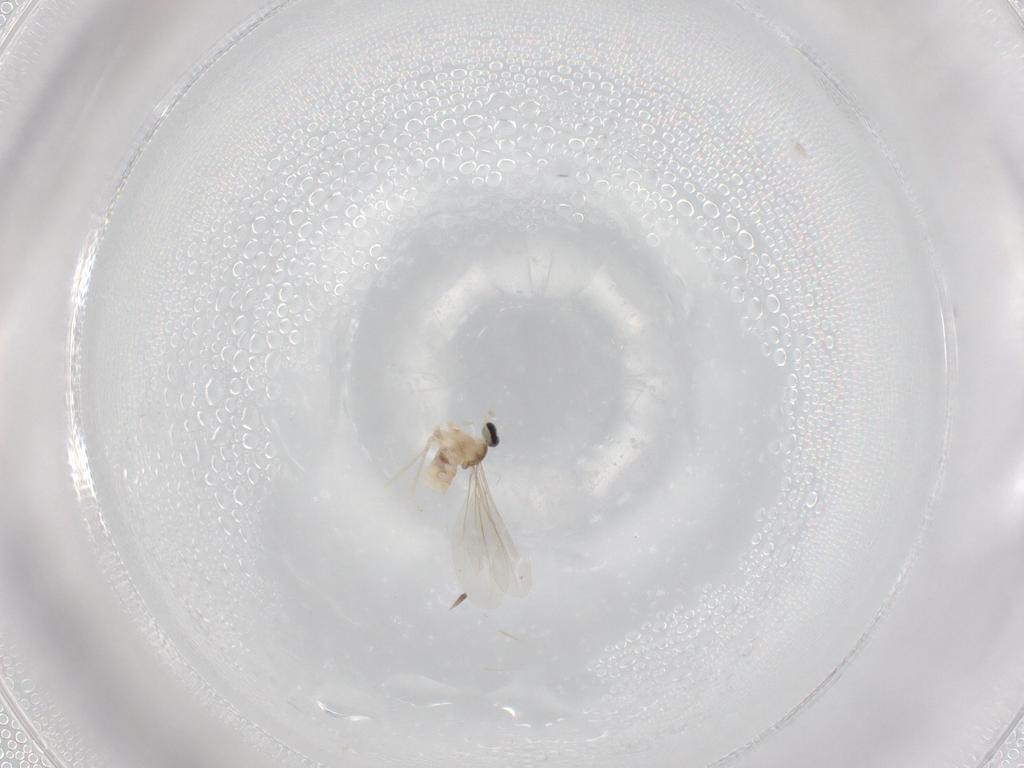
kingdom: Animalia
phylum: Arthropoda
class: Insecta
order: Diptera
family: Cecidomyiidae
